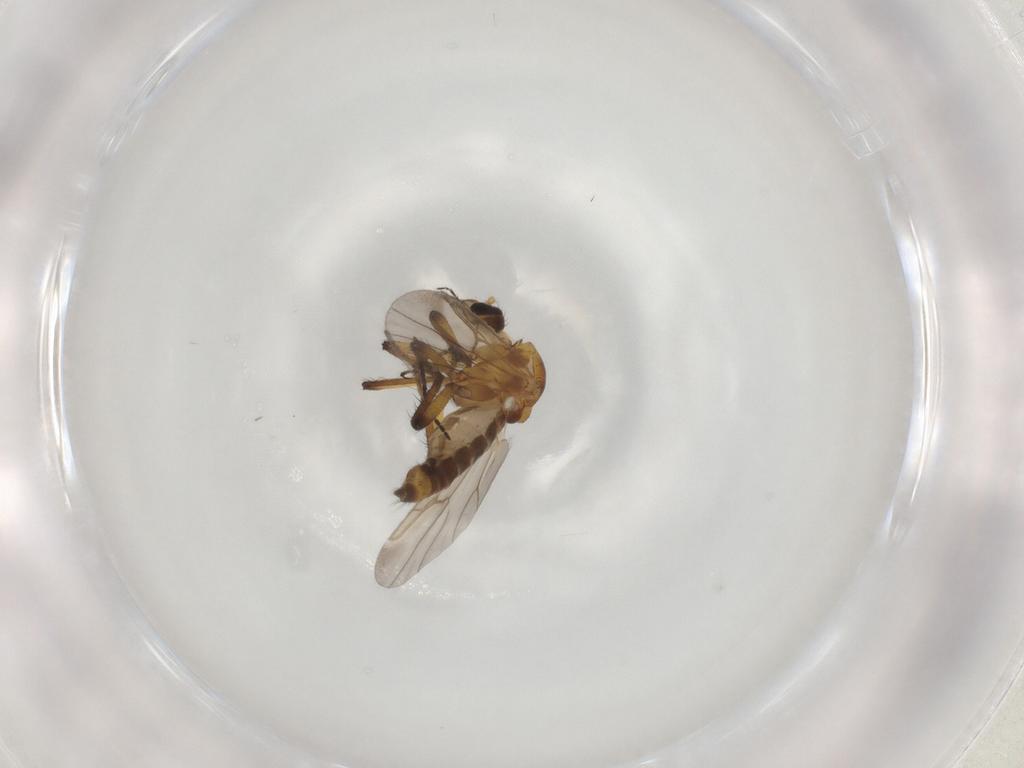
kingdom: Animalia
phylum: Arthropoda
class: Insecta
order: Diptera
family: Ceratopogonidae
